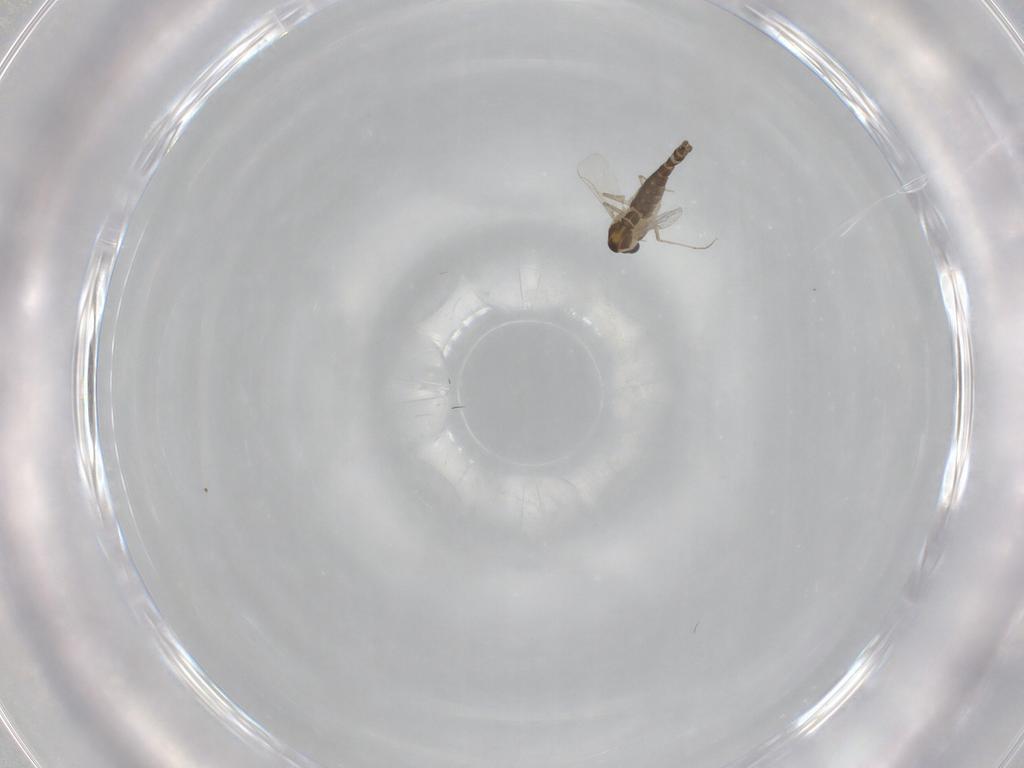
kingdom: Animalia
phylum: Arthropoda
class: Insecta
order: Diptera
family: Chironomidae
